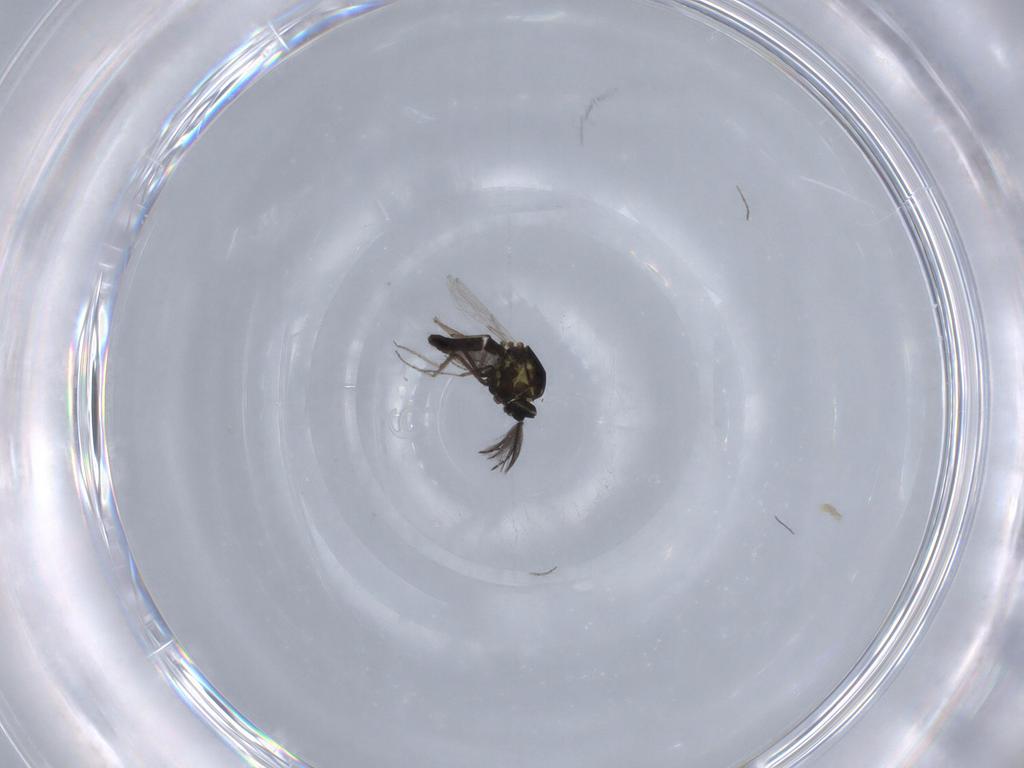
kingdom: Animalia
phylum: Arthropoda
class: Insecta
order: Diptera
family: Ceratopogonidae
